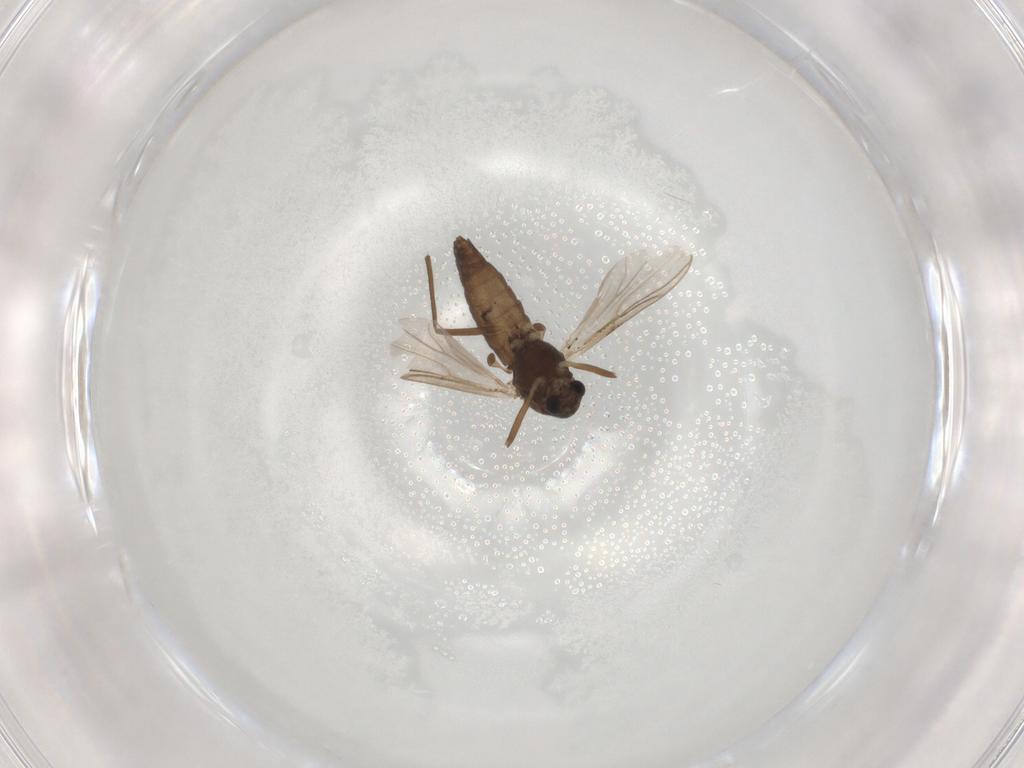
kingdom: Animalia
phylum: Arthropoda
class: Insecta
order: Diptera
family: Chironomidae
